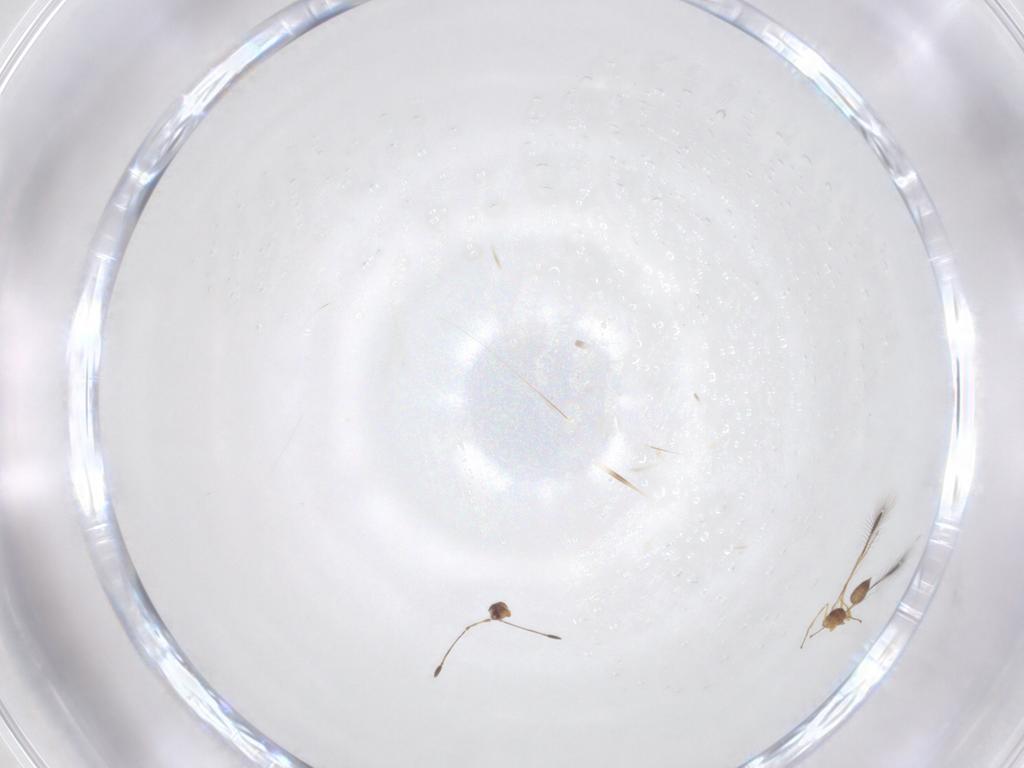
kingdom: Animalia
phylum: Arthropoda
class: Insecta
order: Hymenoptera
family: Mymaridae
